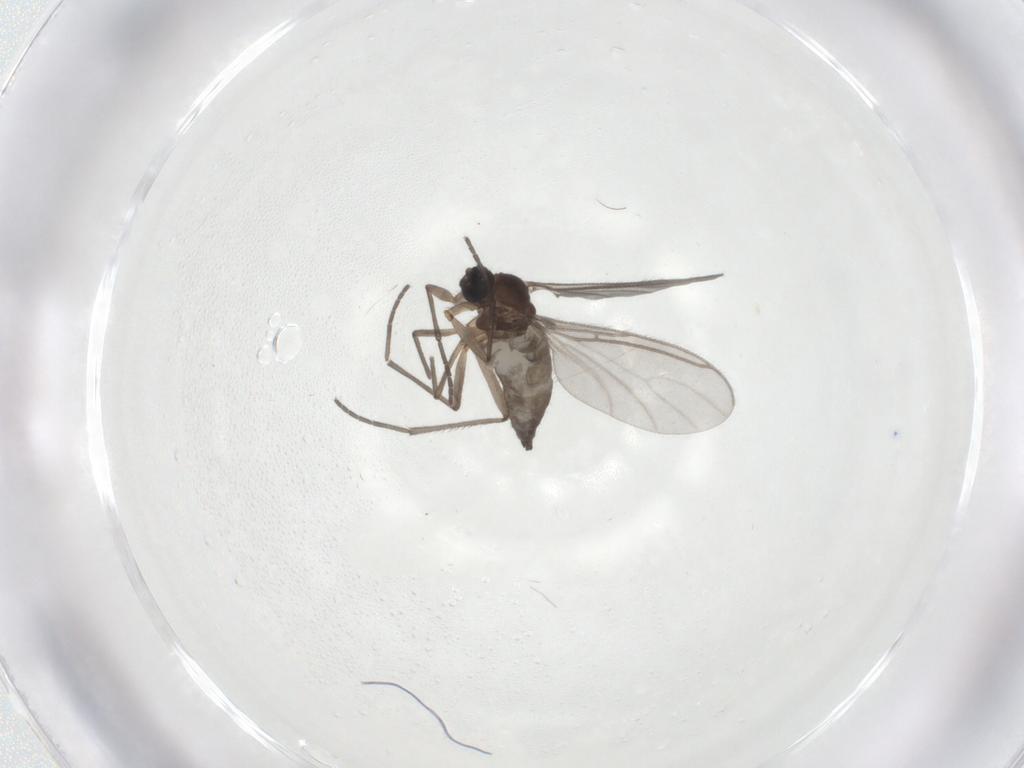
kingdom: Animalia
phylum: Arthropoda
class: Insecta
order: Diptera
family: Sciaridae
